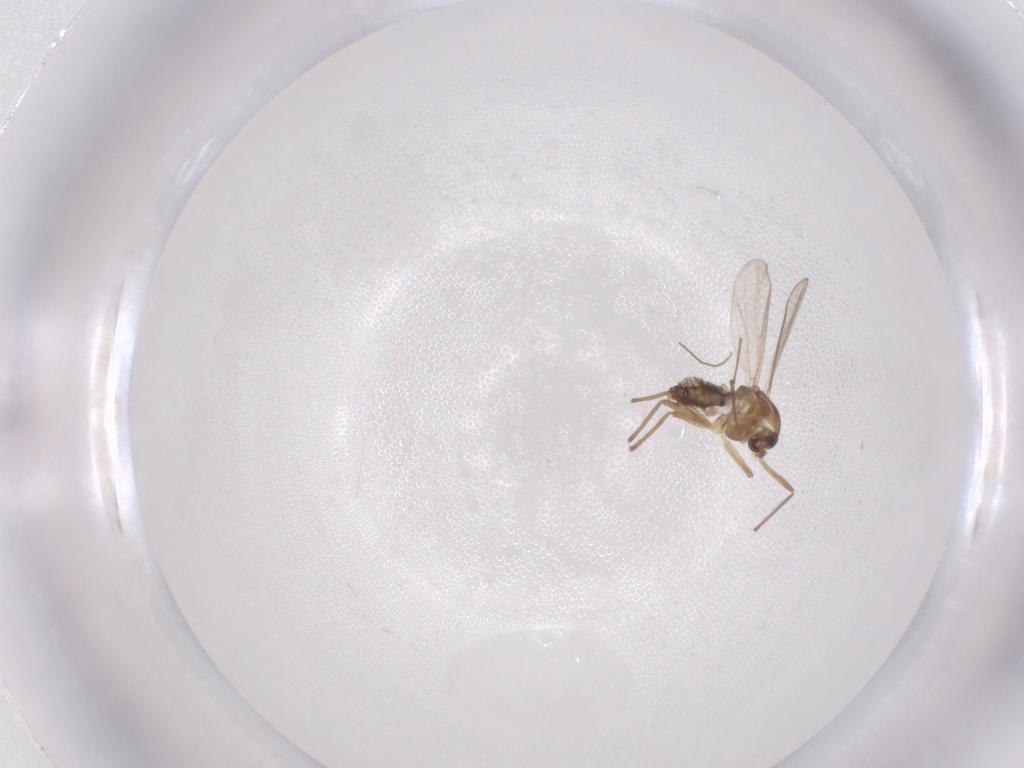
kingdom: Animalia
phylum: Arthropoda
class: Insecta
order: Diptera
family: Chironomidae
